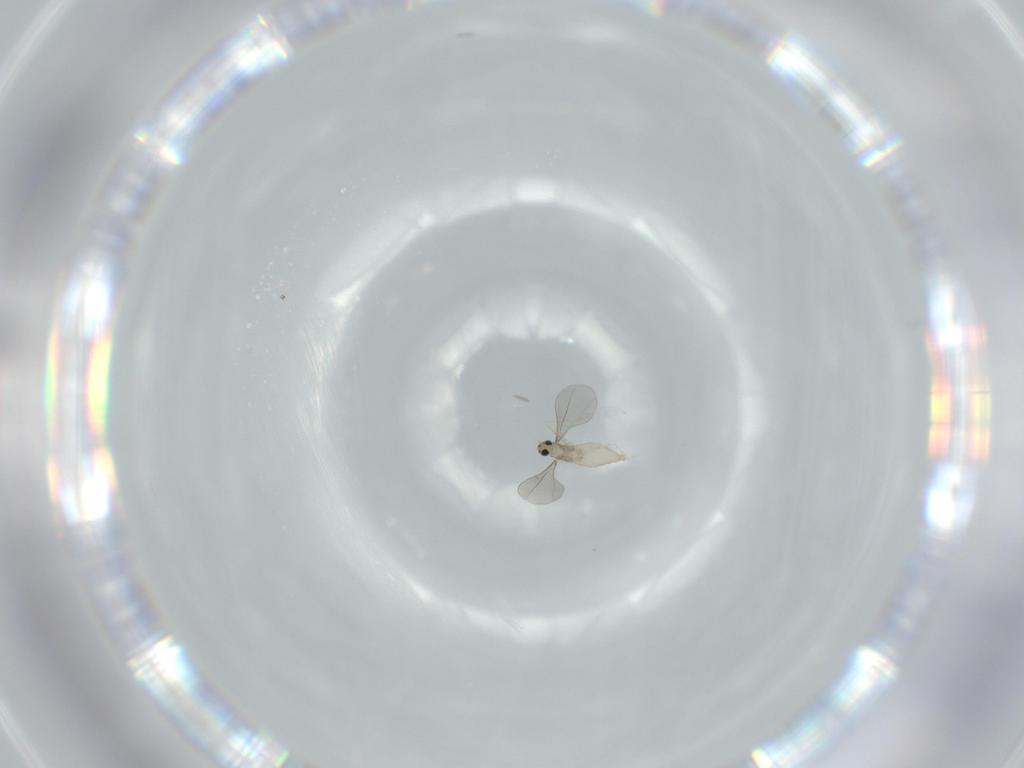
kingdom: Animalia
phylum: Arthropoda
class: Insecta
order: Diptera
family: Cecidomyiidae
